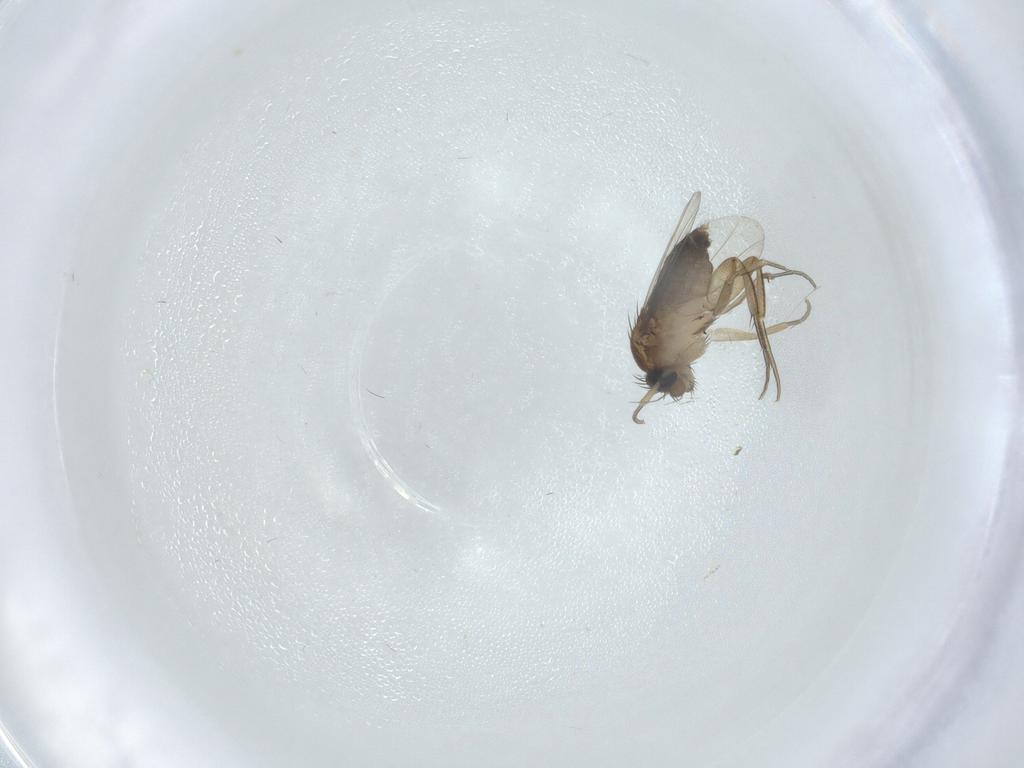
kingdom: Animalia
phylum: Arthropoda
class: Insecta
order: Diptera
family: Phoridae
